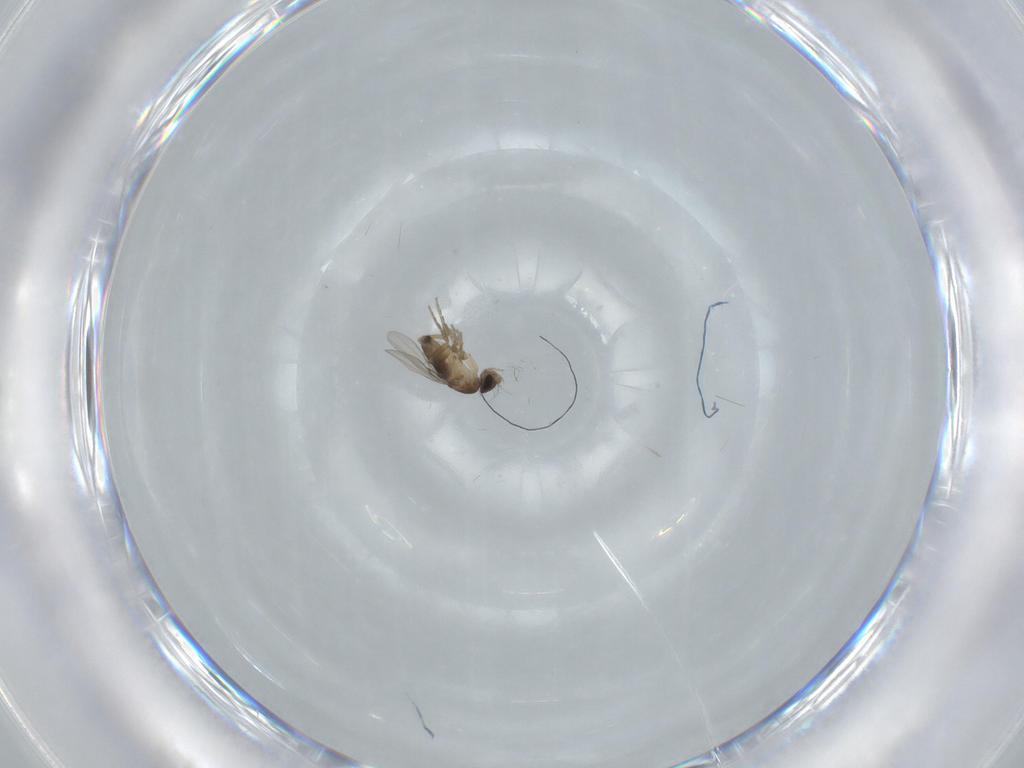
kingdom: Animalia
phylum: Arthropoda
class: Insecta
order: Diptera
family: Phoridae
